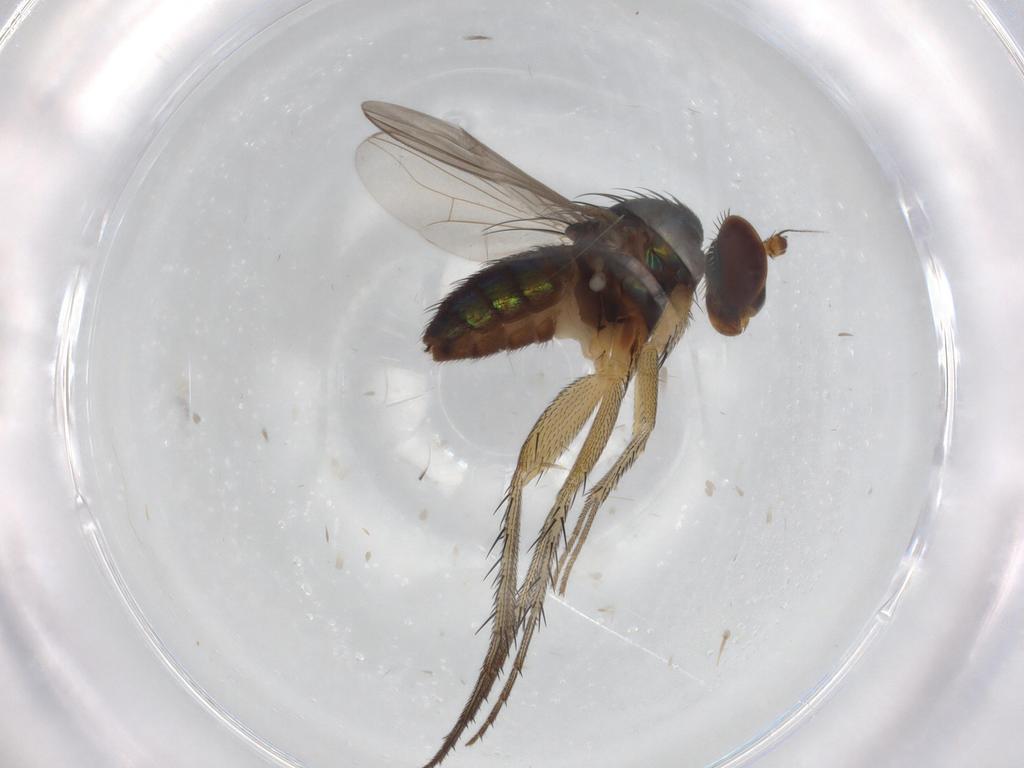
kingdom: Animalia
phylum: Arthropoda
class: Insecta
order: Diptera
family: Dolichopodidae
